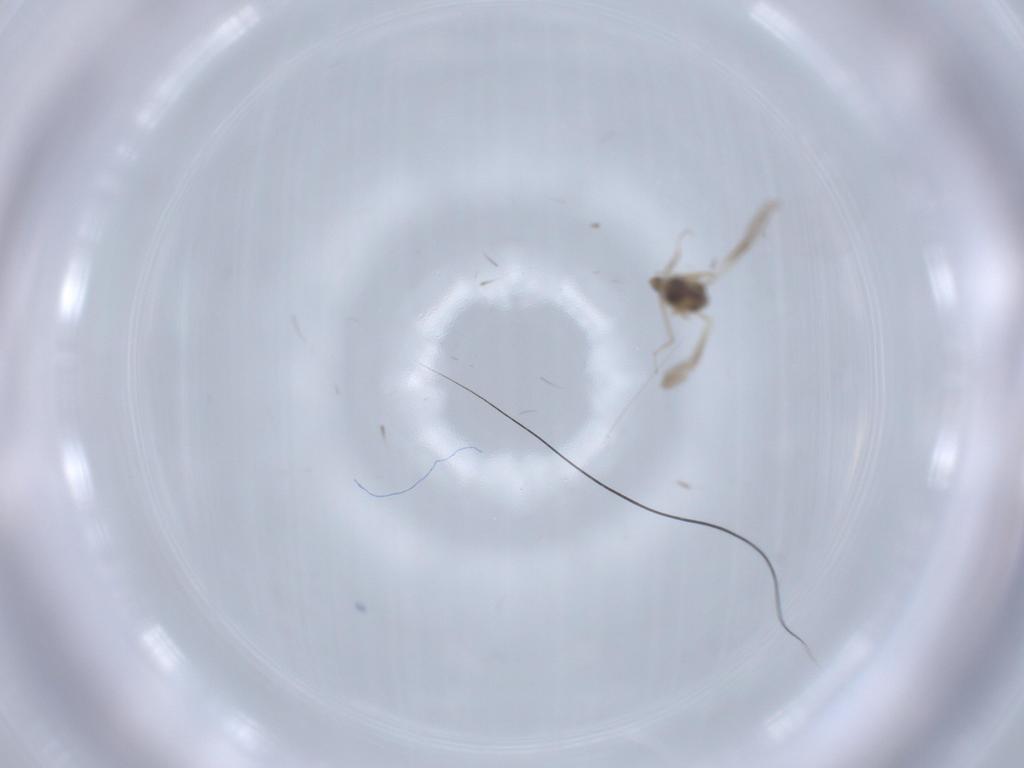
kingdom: Animalia
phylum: Arthropoda
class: Insecta
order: Diptera
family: Chironomidae
